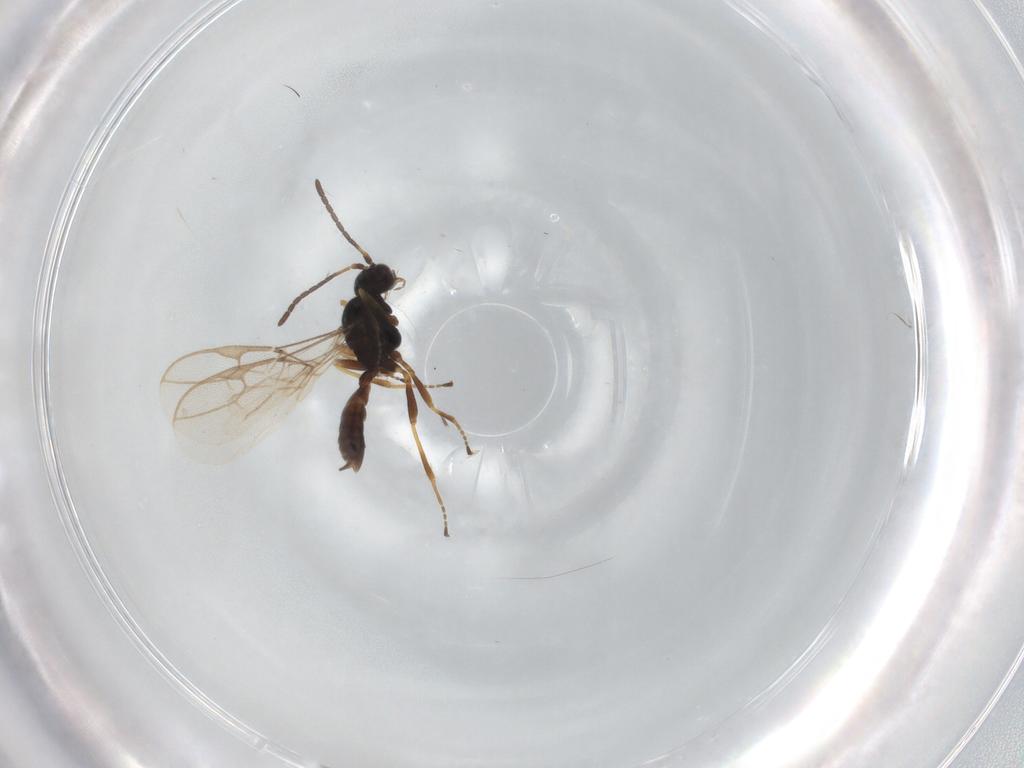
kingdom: Animalia
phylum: Arthropoda
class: Insecta
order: Hymenoptera
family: Braconidae
